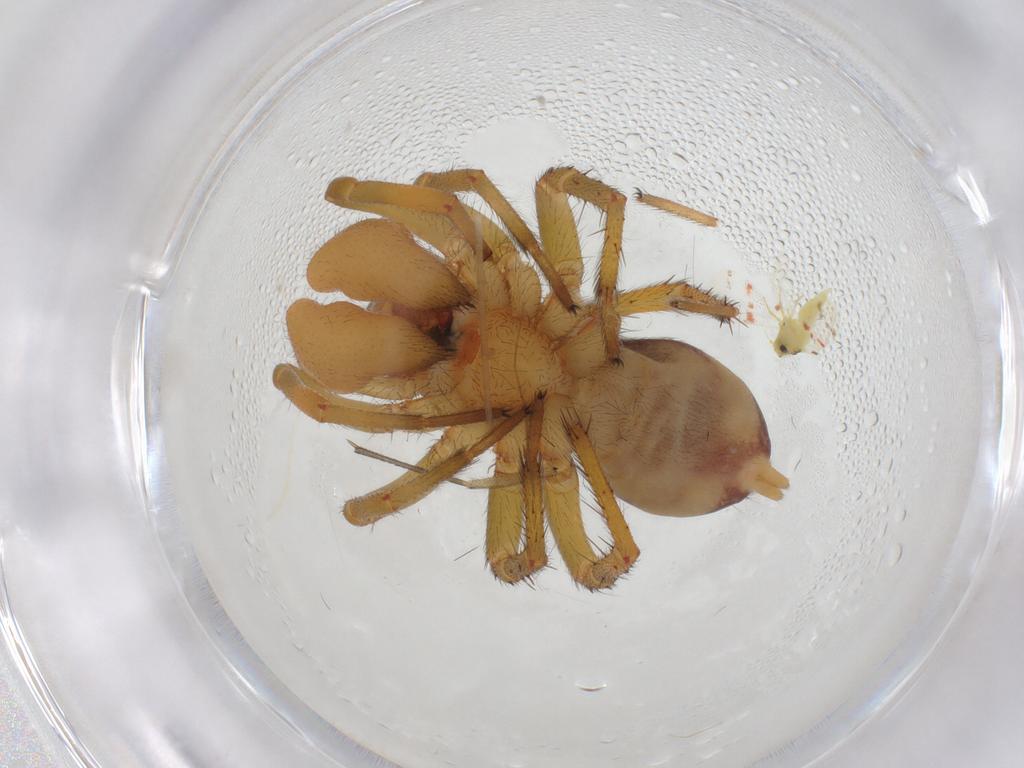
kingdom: Animalia
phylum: Arthropoda
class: Arachnida
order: Araneae
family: Zodariidae
